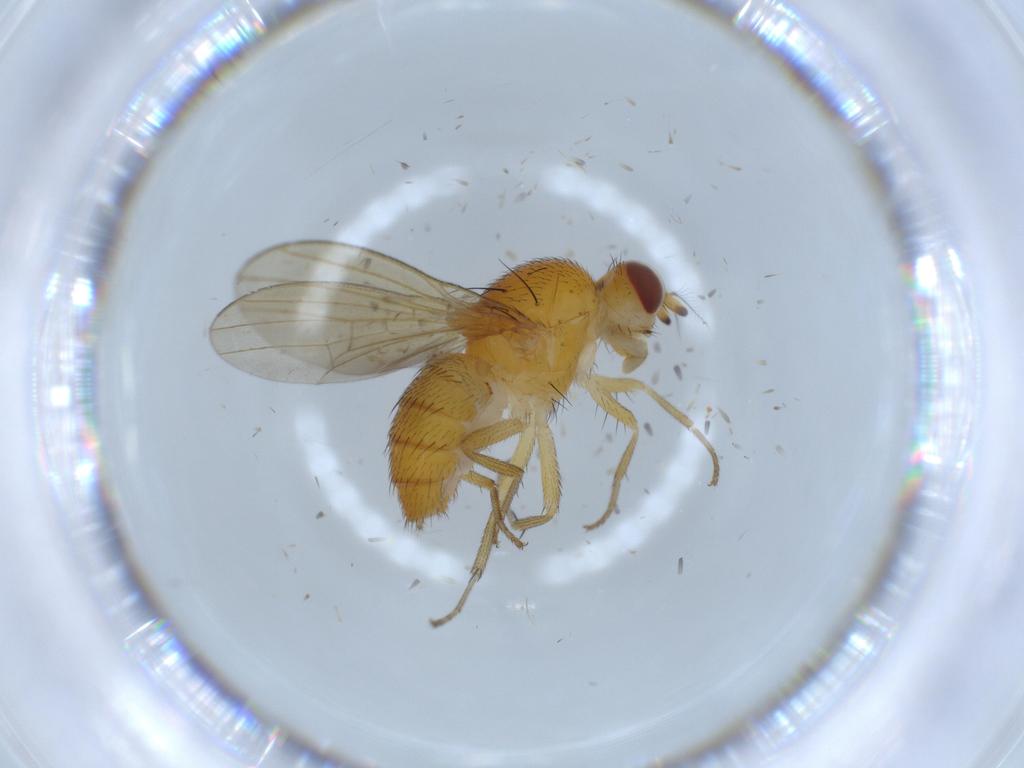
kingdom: Animalia
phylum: Arthropoda
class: Insecta
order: Diptera
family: Lauxaniidae
